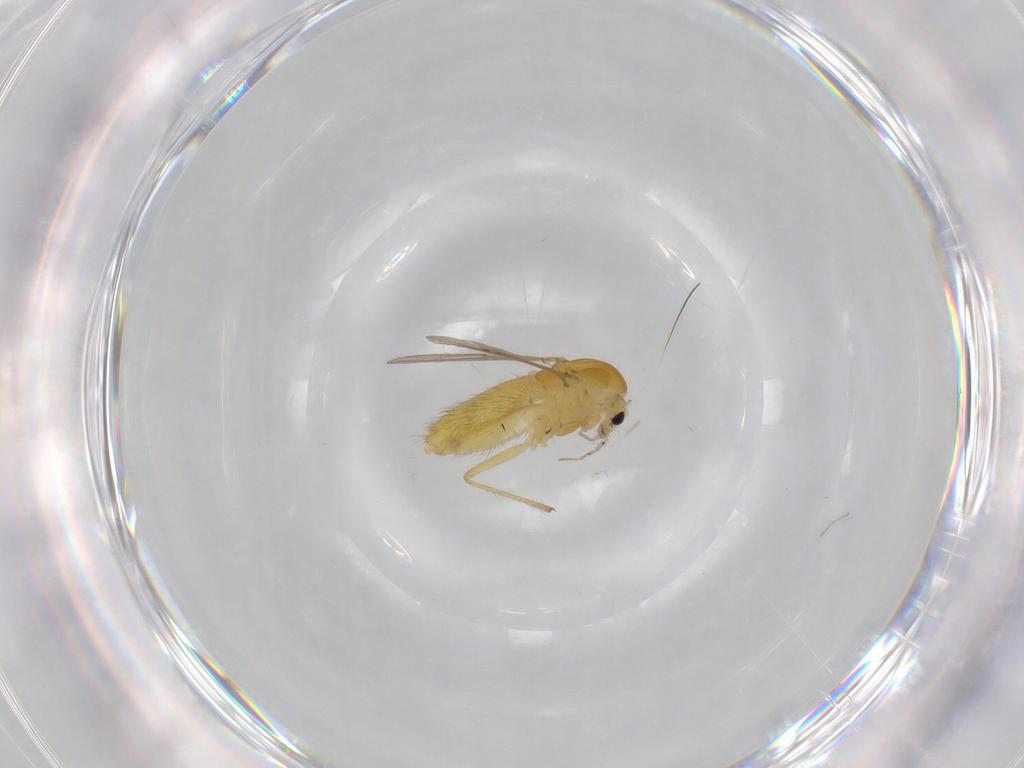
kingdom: Animalia
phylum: Arthropoda
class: Insecta
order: Diptera
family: Chironomidae
